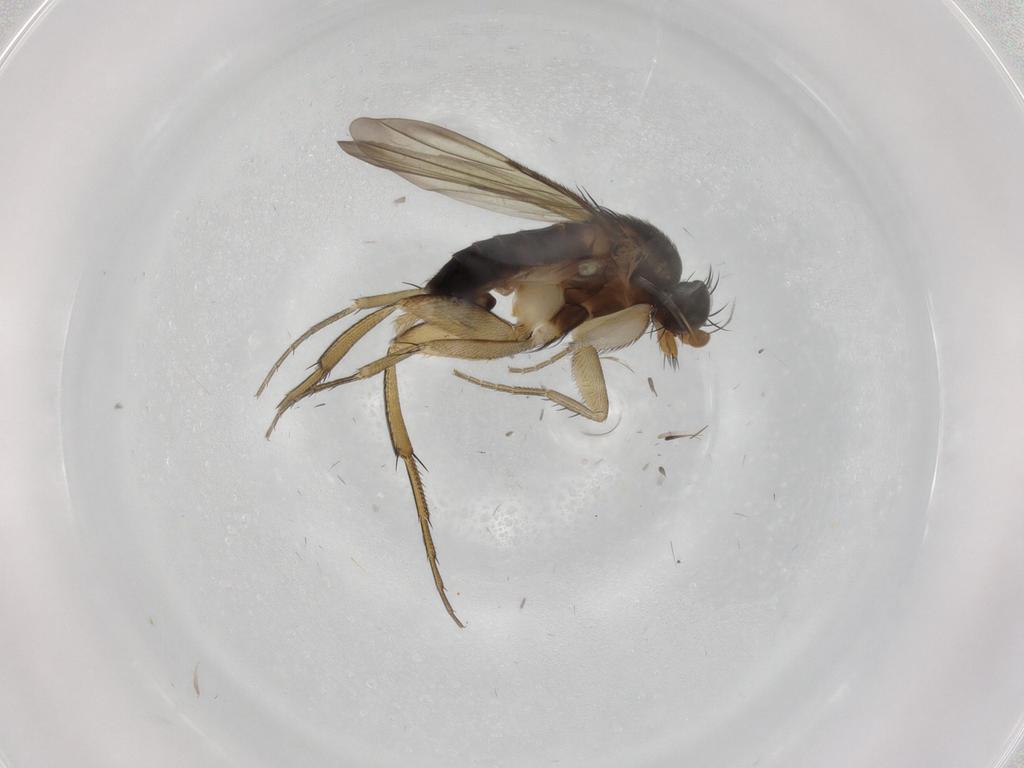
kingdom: Animalia
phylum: Arthropoda
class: Insecta
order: Diptera
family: Phoridae
